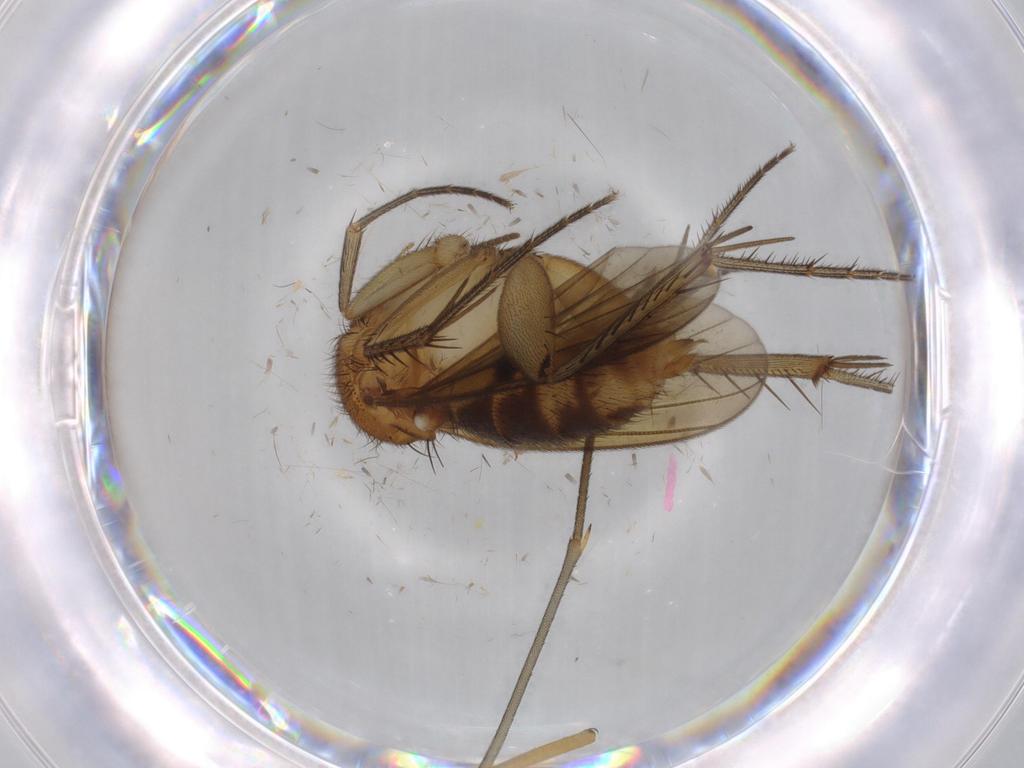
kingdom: Animalia
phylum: Arthropoda
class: Insecta
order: Diptera
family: Mycetophilidae
